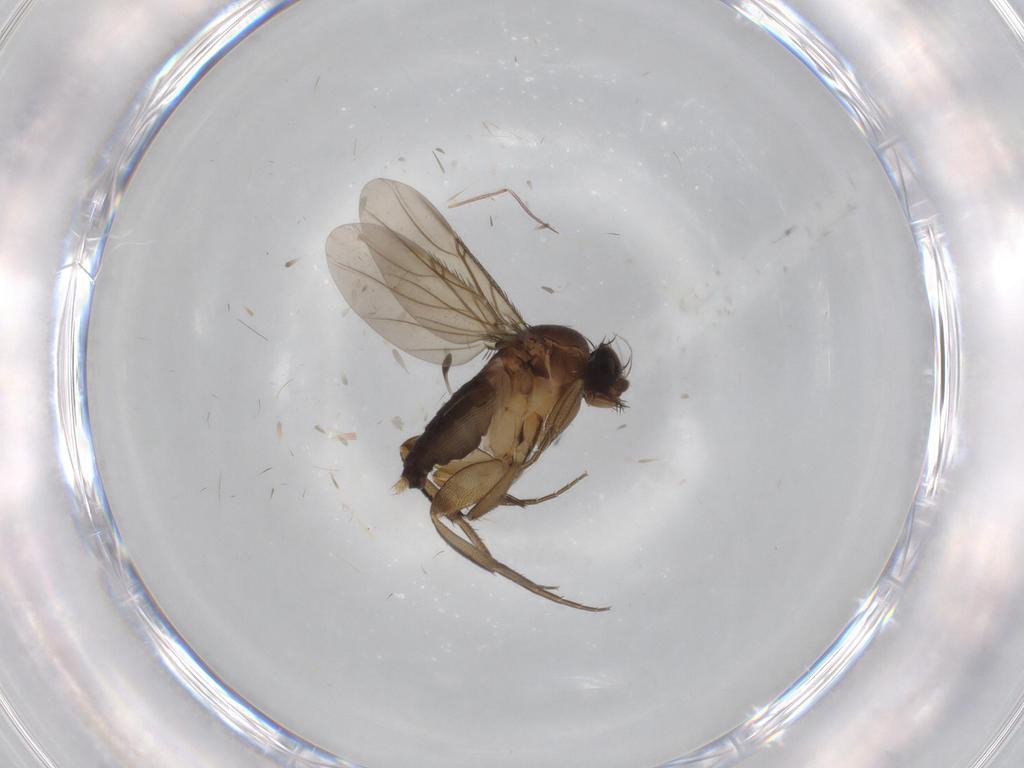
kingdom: Animalia
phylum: Arthropoda
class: Insecta
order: Diptera
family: Phoridae
